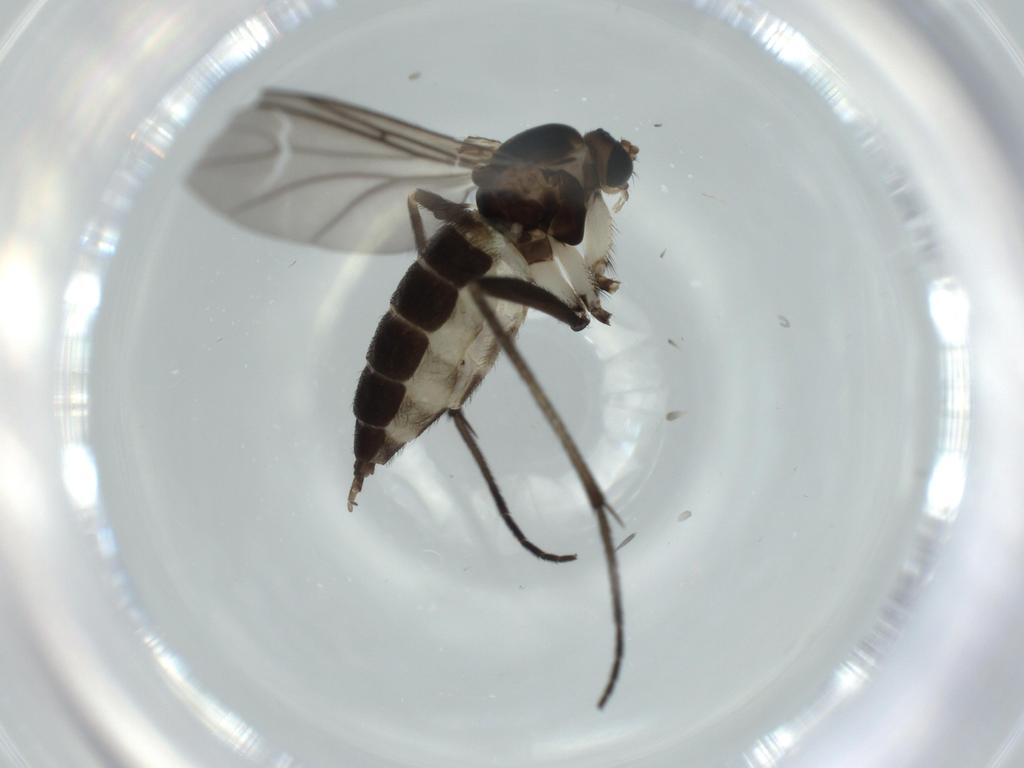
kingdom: Animalia
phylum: Arthropoda
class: Insecta
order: Diptera
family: Sciaridae
